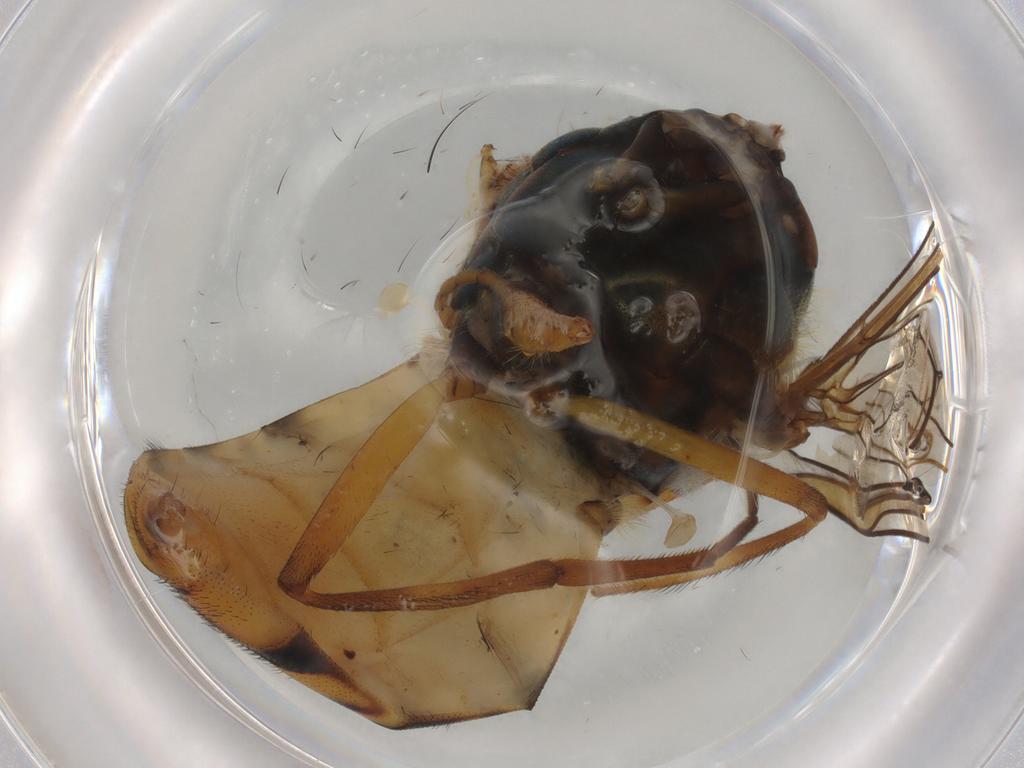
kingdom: Animalia
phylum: Arthropoda
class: Insecta
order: Diptera
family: Syrphidae
